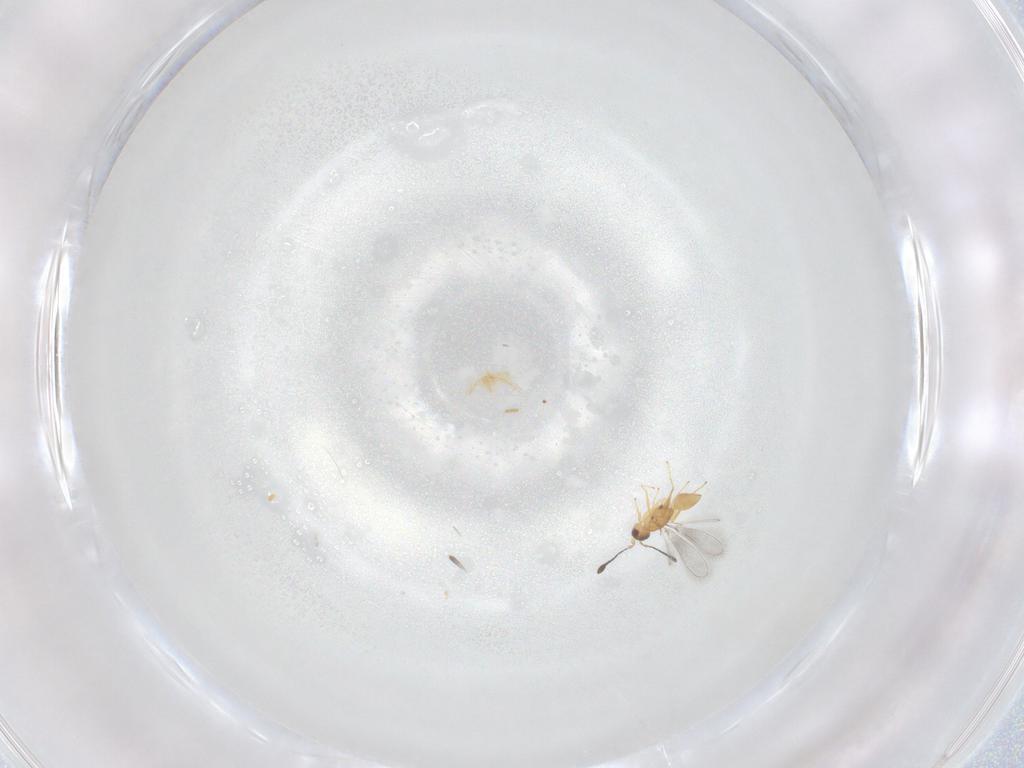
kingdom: Animalia
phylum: Arthropoda
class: Insecta
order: Hymenoptera
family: Mymaridae
